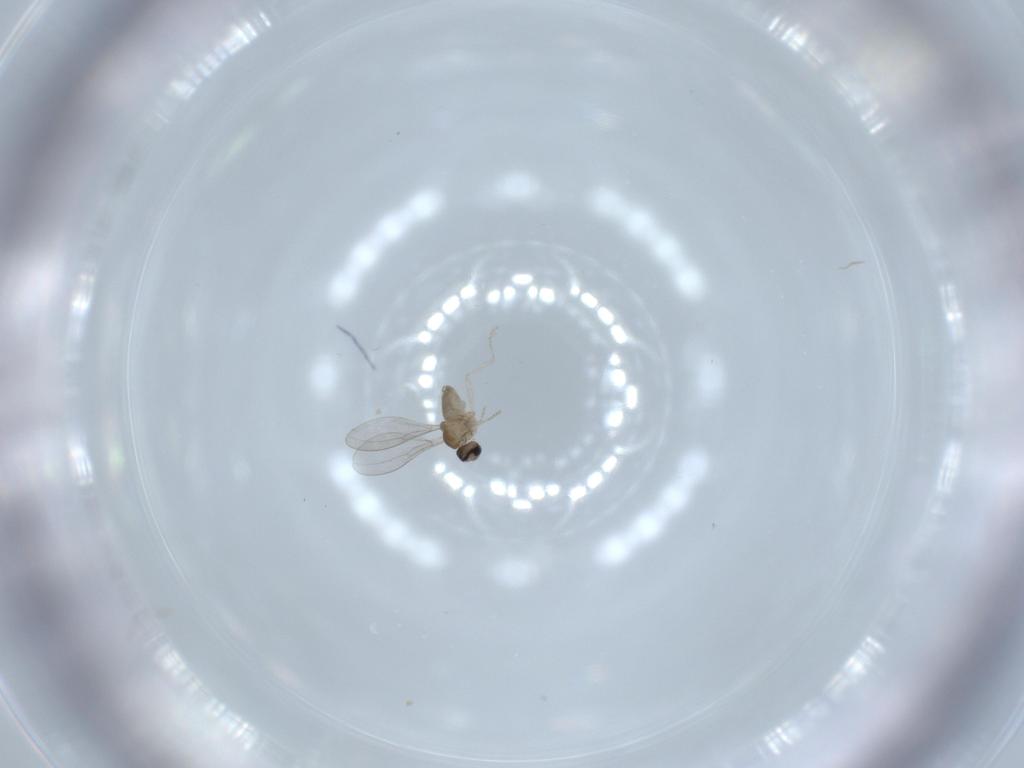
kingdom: Animalia
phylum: Arthropoda
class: Insecta
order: Diptera
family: Cecidomyiidae
